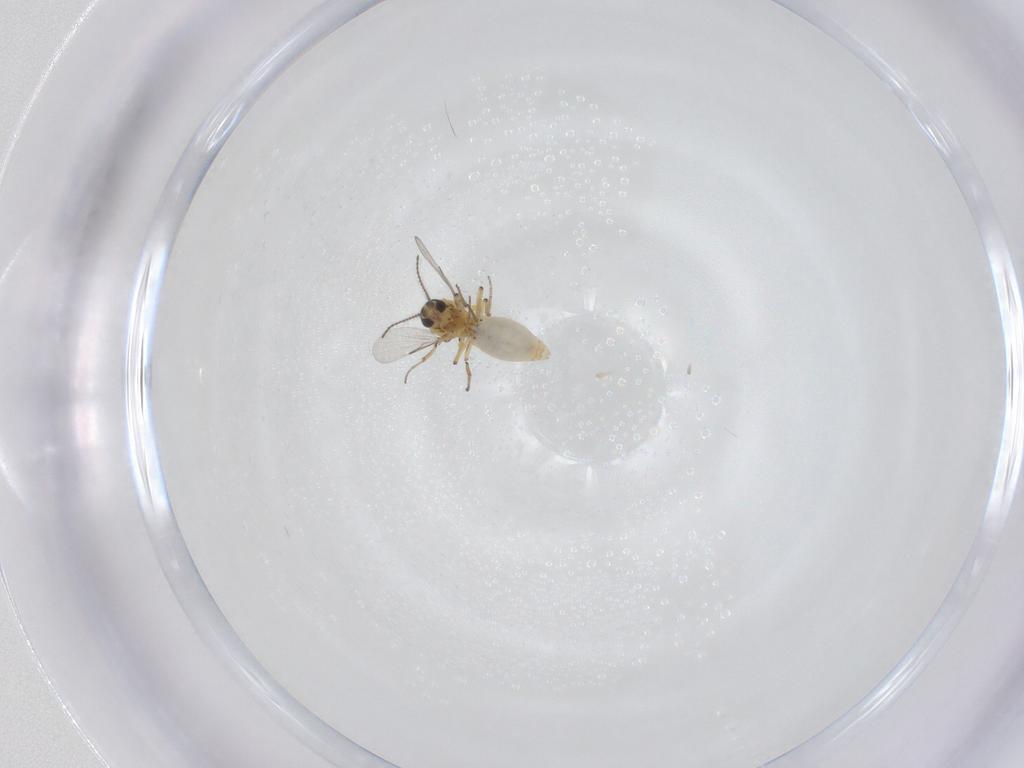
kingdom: Animalia
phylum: Arthropoda
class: Insecta
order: Diptera
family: Ceratopogonidae
